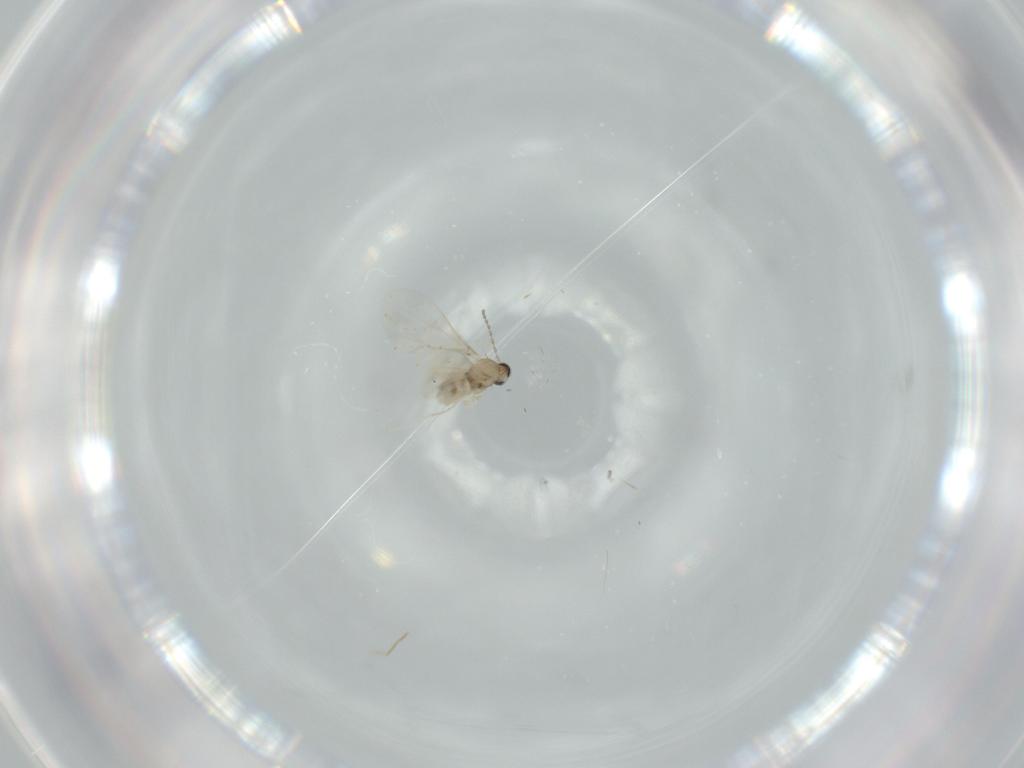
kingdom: Animalia
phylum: Arthropoda
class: Insecta
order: Diptera
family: Cecidomyiidae
